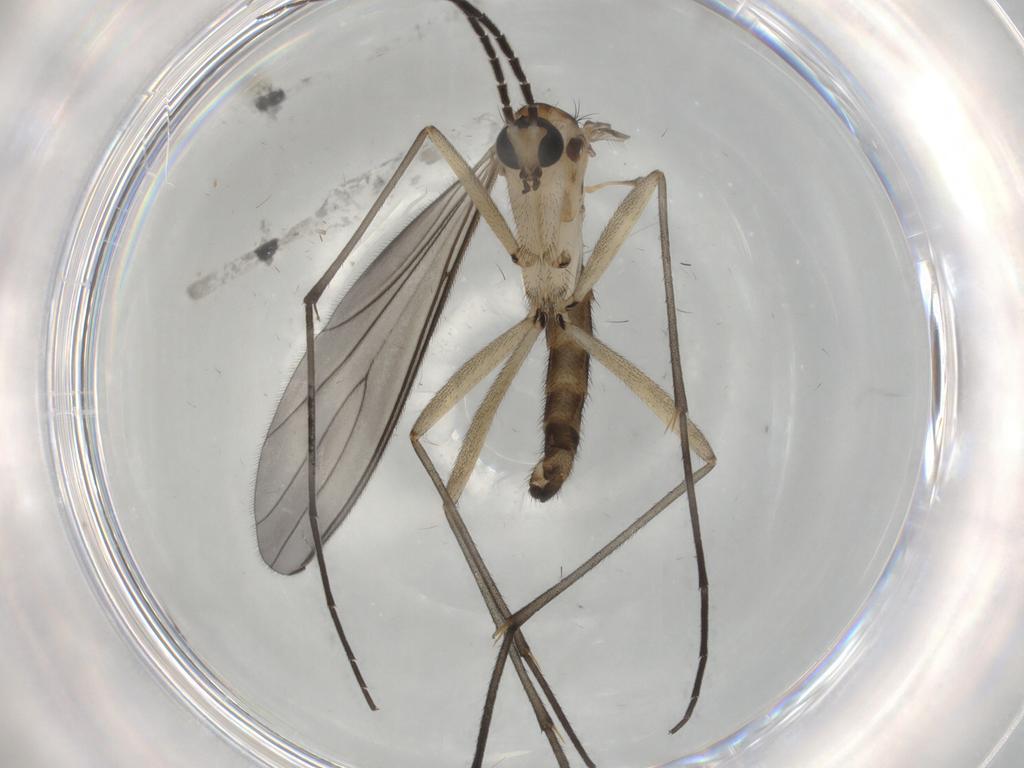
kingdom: Animalia
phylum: Arthropoda
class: Insecta
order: Diptera
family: Sciaridae
